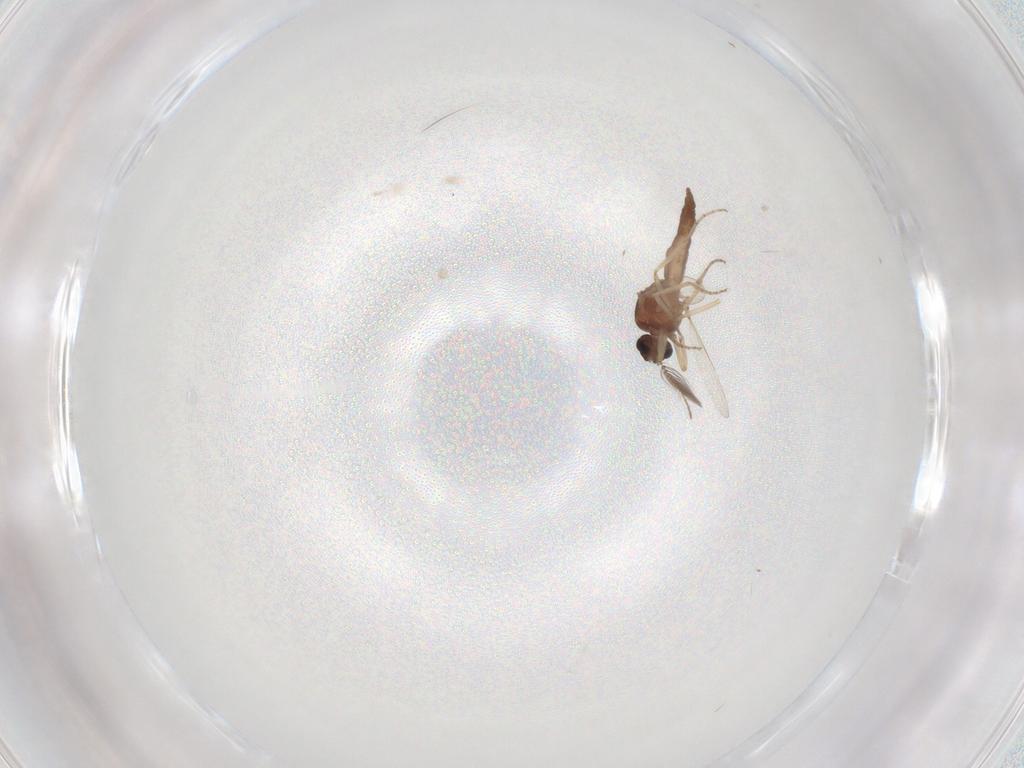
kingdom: Animalia
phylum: Arthropoda
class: Insecta
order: Diptera
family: Ceratopogonidae
